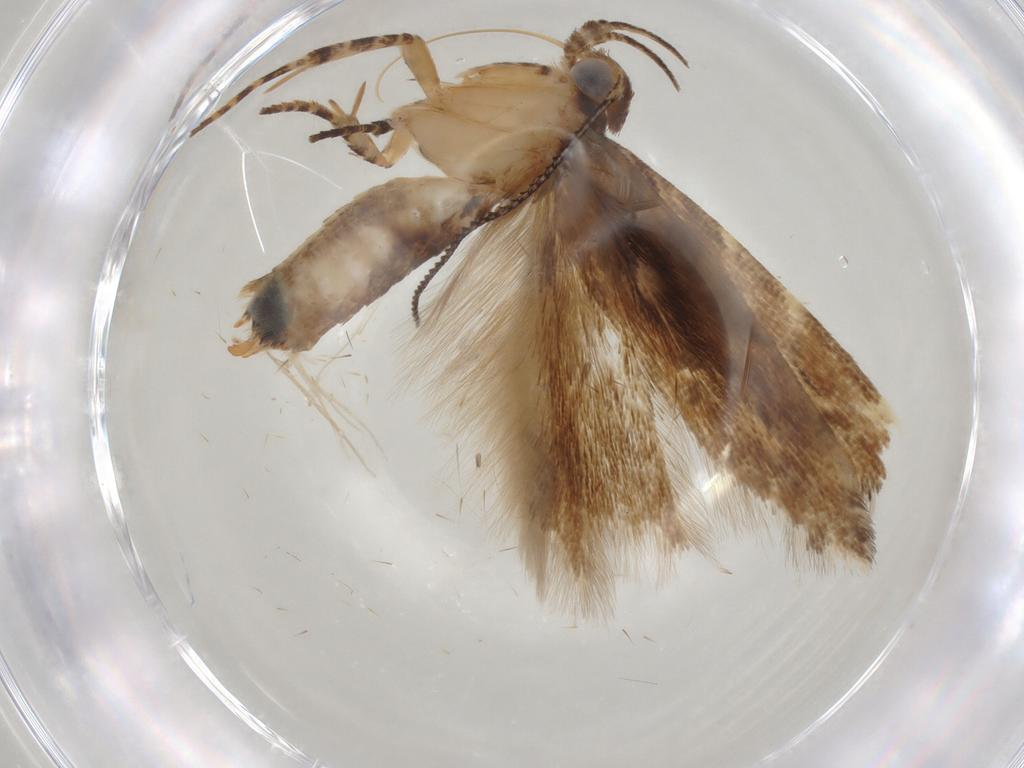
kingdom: Animalia
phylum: Arthropoda
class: Insecta
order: Lepidoptera
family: Gelechiidae
